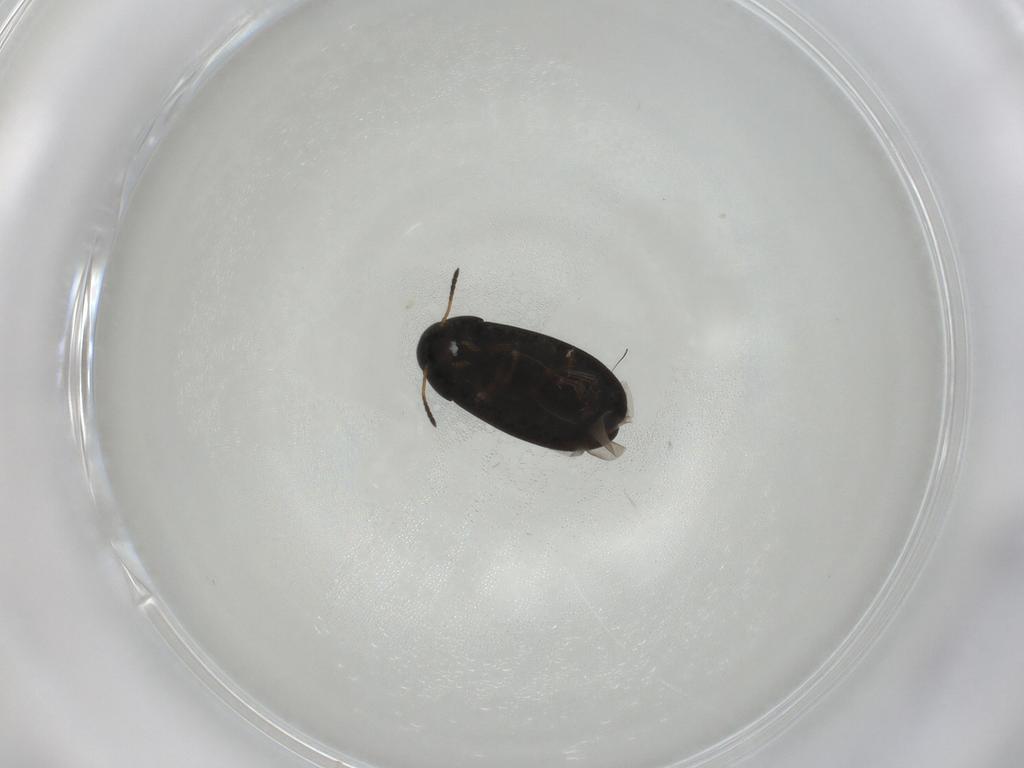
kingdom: Animalia
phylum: Arthropoda
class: Insecta
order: Coleoptera
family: Scraptiidae
